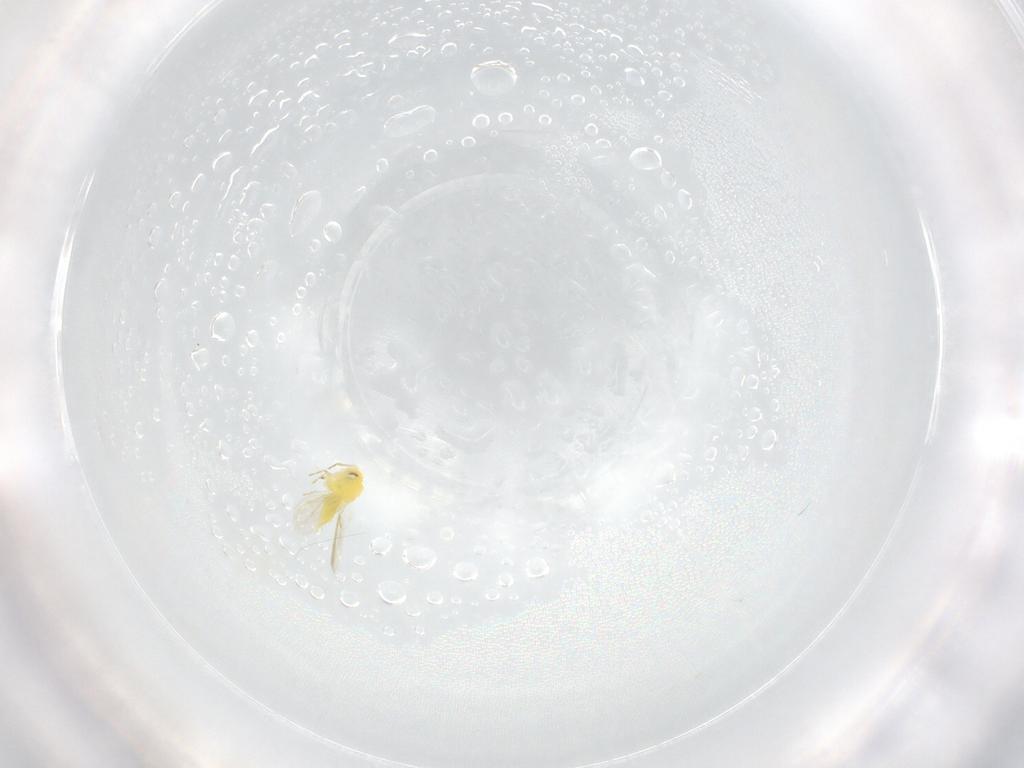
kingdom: Animalia
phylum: Arthropoda
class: Insecta
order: Hemiptera
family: Aleyrodidae
